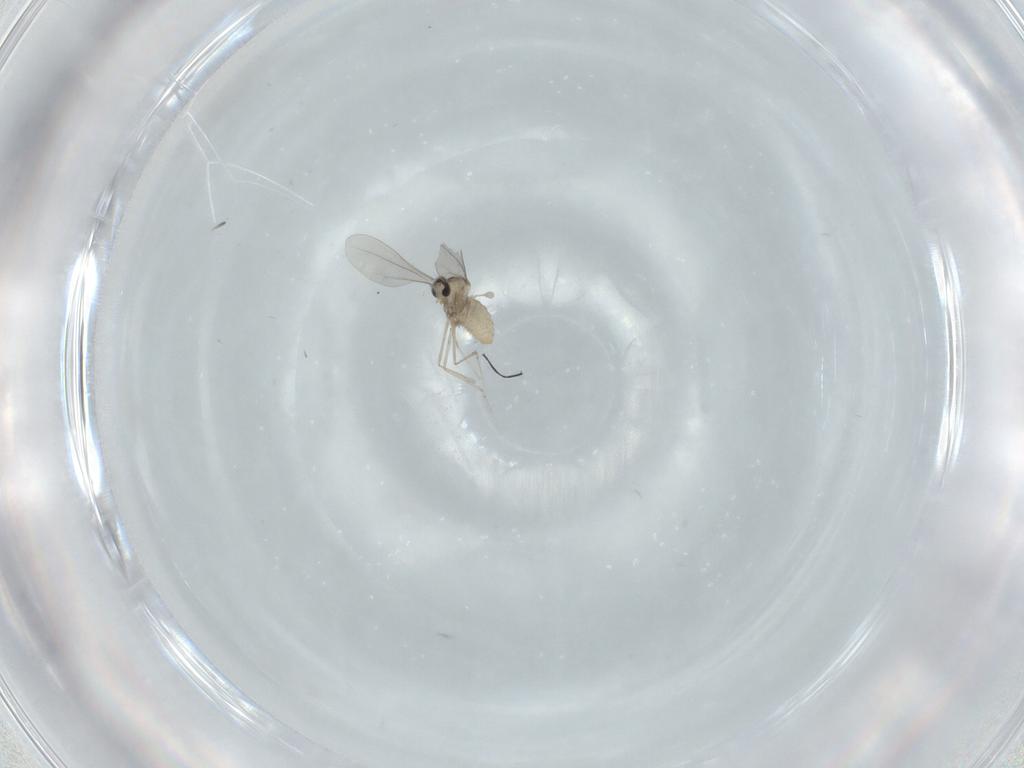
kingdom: Animalia
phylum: Arthropoda
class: Insecta
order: Diptera
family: Cecidomyiidae
